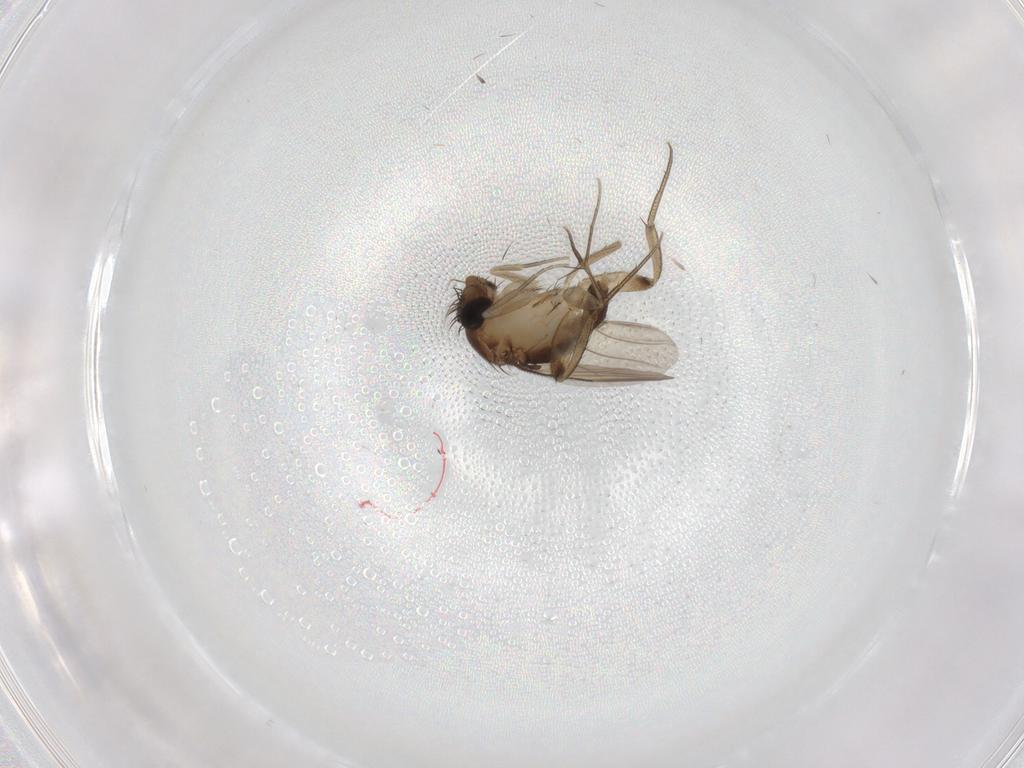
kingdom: Animalia
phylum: Arthropoda
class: Insecta
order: Diptera
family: Phoridae
